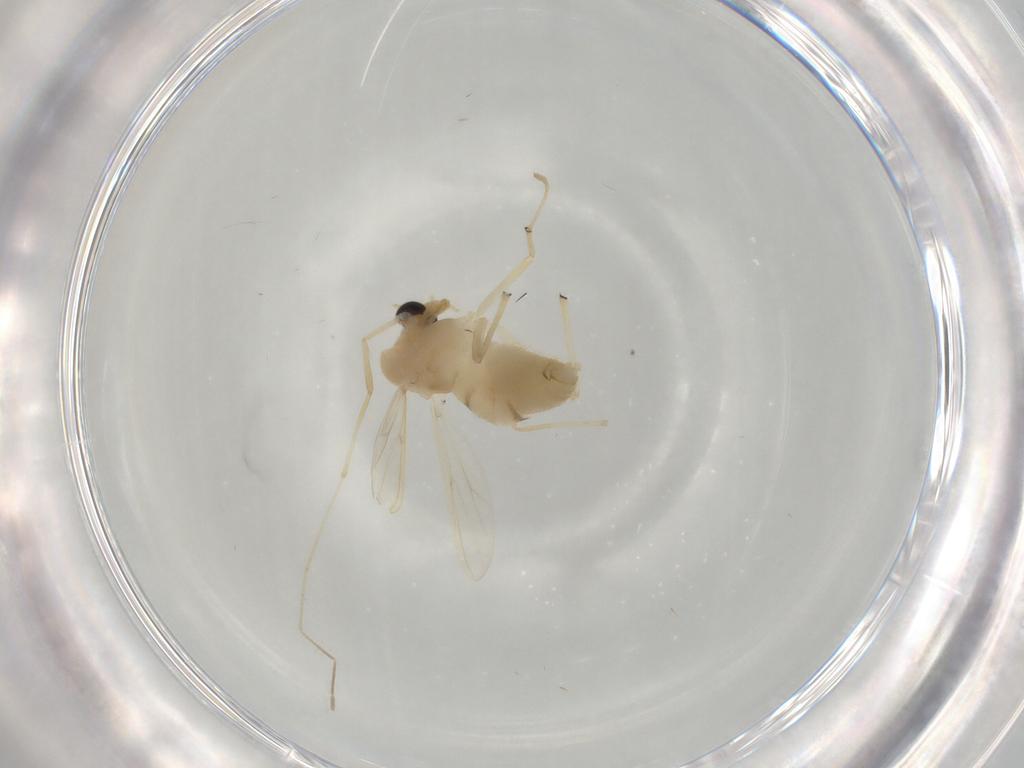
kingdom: Animalia
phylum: Arthropoda
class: Insecta
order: Diptera
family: Chironomidae
